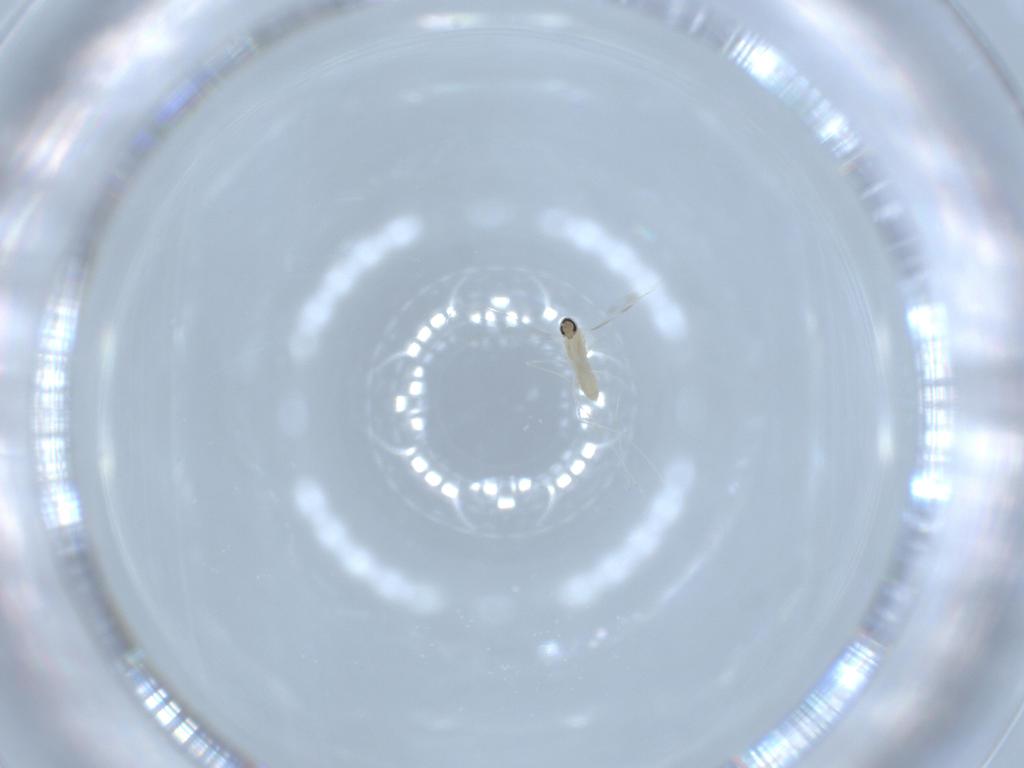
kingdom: Animalia
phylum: Arthropoda
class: Insecta
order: Diptera
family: Cecidomyiidae
